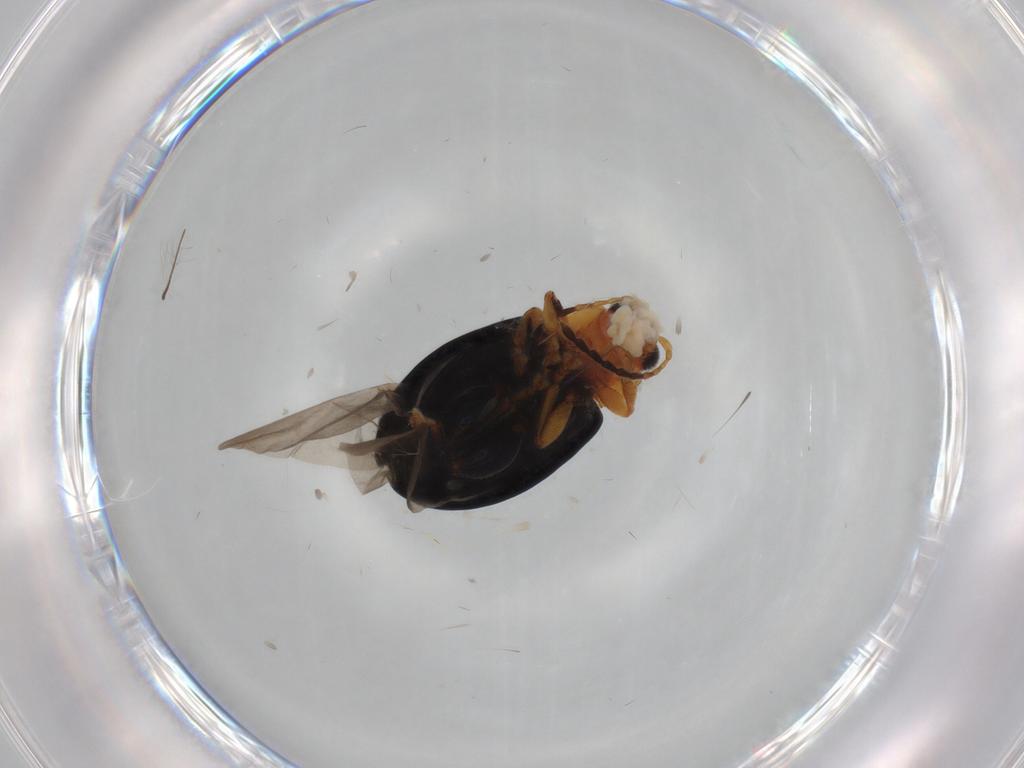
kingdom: Animalia
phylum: Arthropoda
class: Insecta
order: Coleoptera
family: Chrysomelidae
